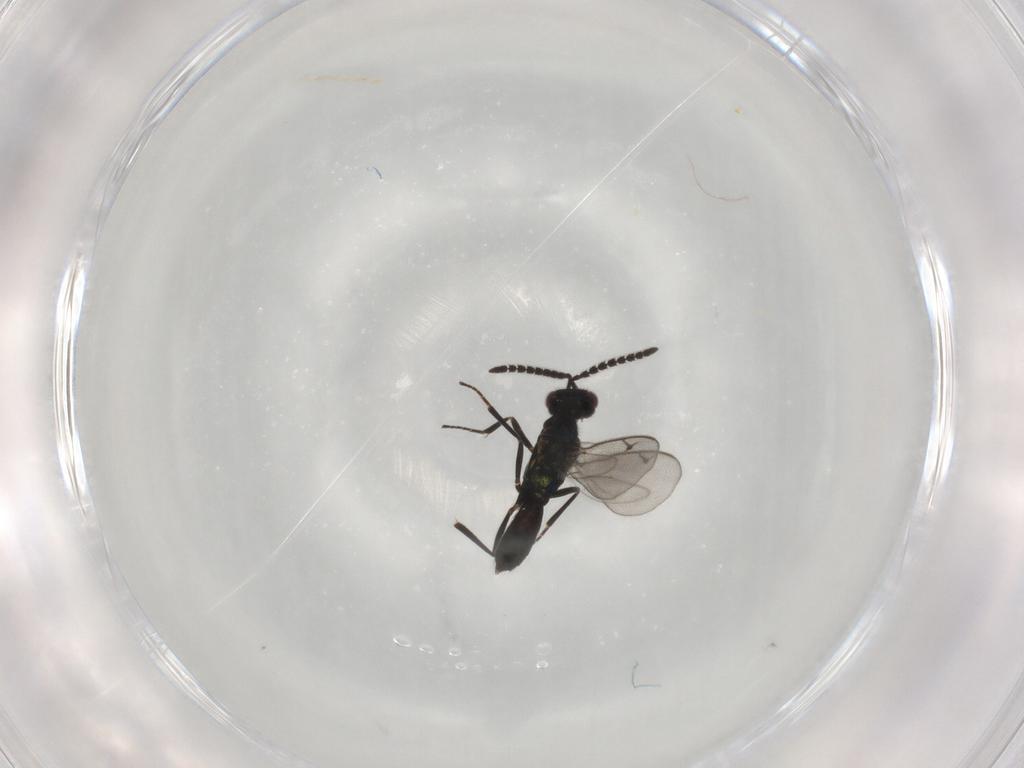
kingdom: Animalia
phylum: Arthropoda
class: Insecta
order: Hymenoptera
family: Eupelmidae
